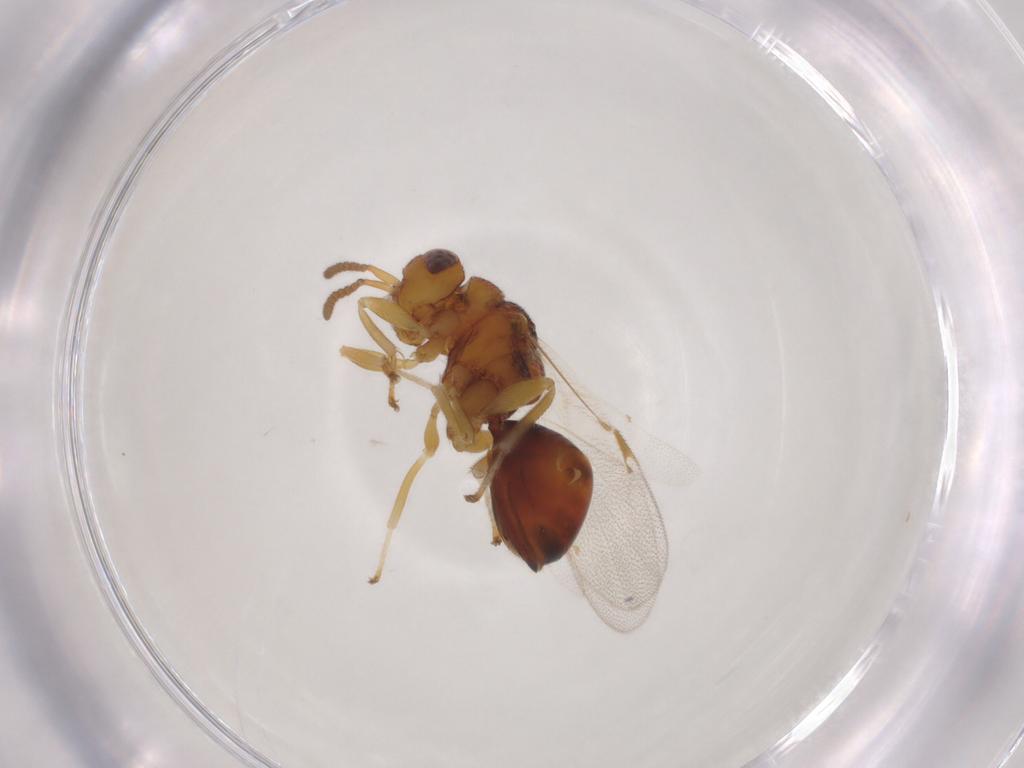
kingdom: Animalia
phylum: Arthropoda
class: Insecta
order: Hymenoptera
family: Eurytomidae
